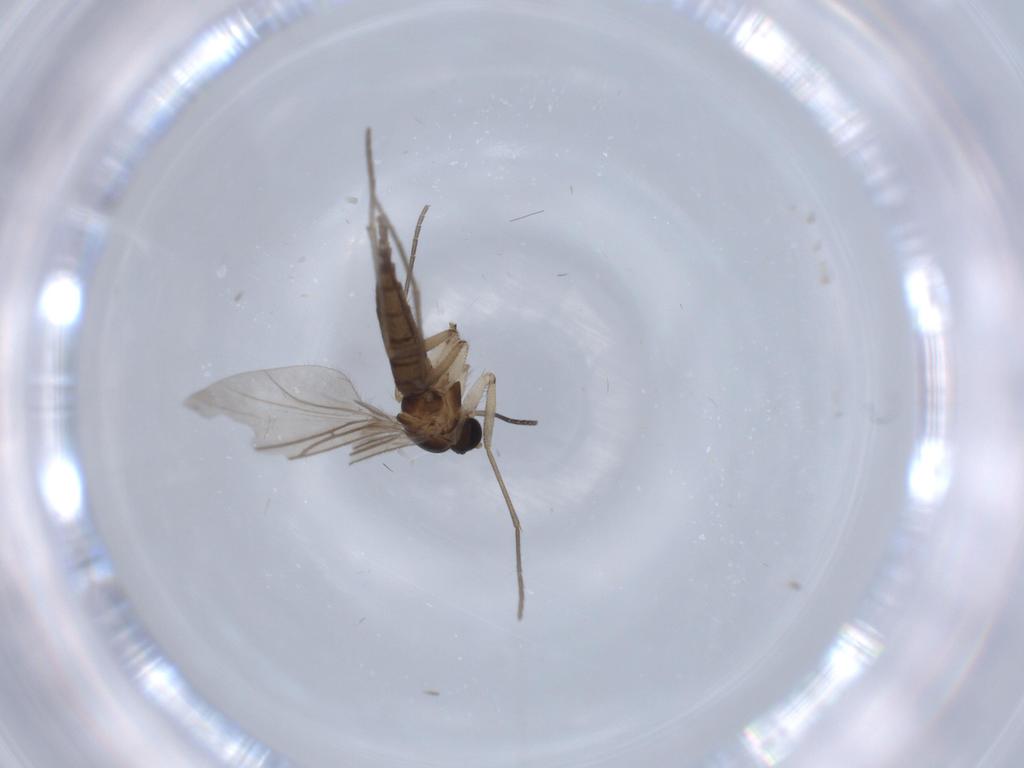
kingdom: Animalia
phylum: Arthropoda
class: Insecta
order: Diptera
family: Sciaridae
